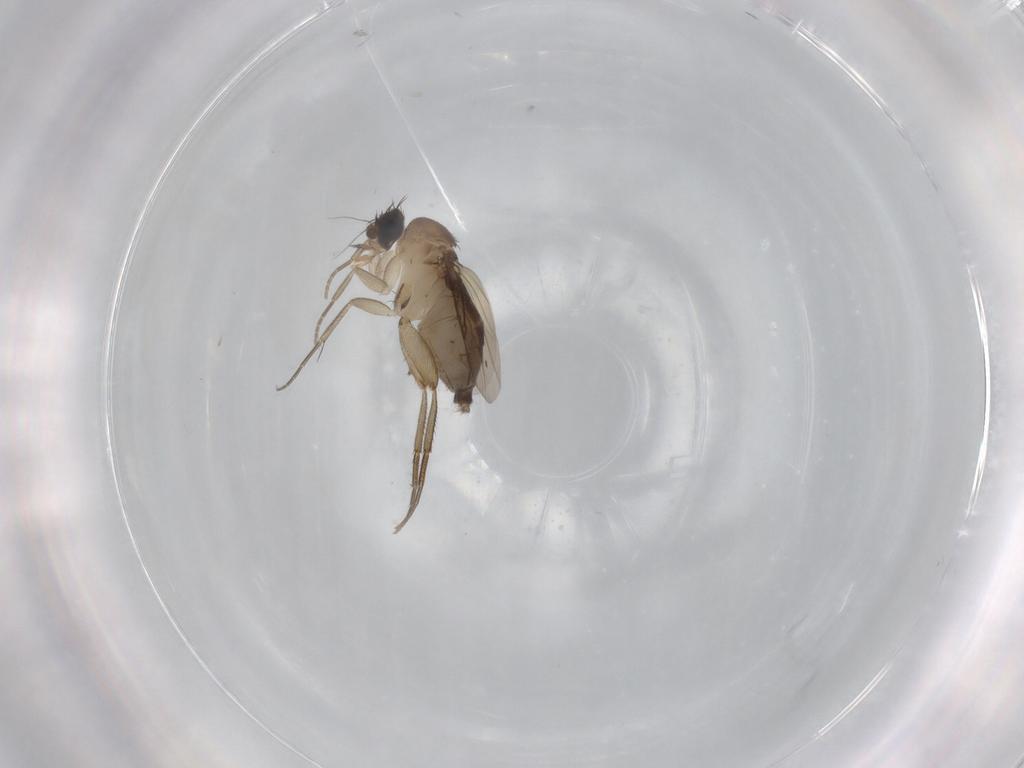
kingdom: Animalia
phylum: Arthropoda
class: Insecta
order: Diptera
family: Phoridae
